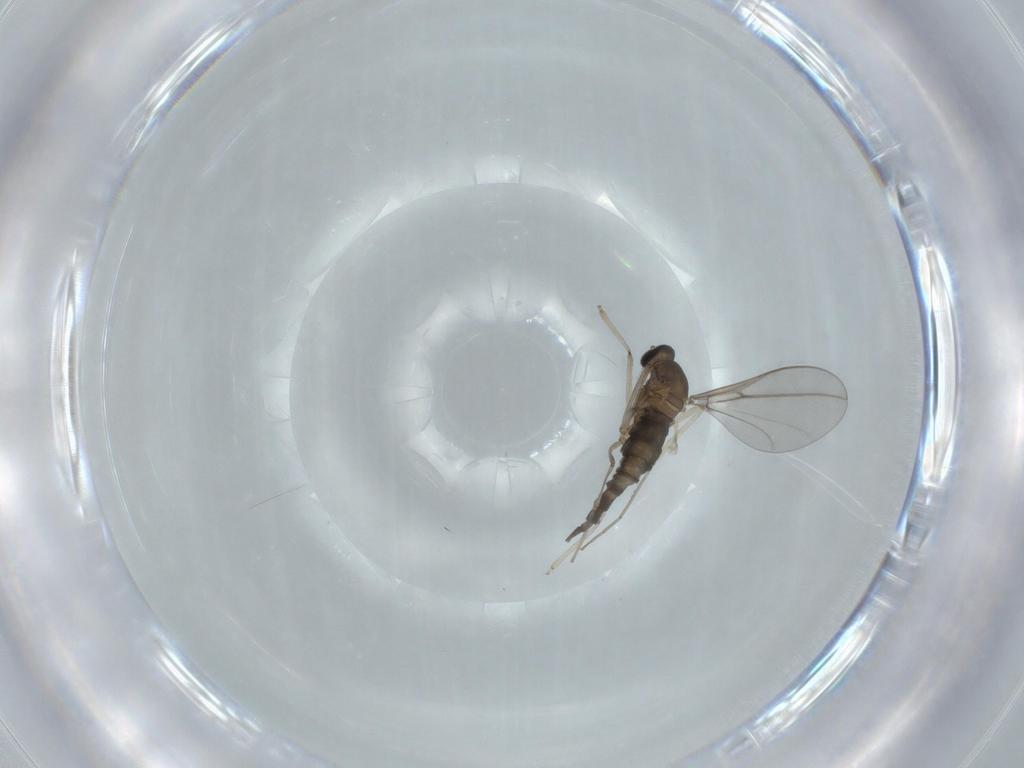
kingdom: Animalia
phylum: Arthropoda
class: Insecta
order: Diptera
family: Cecidomyiidae
